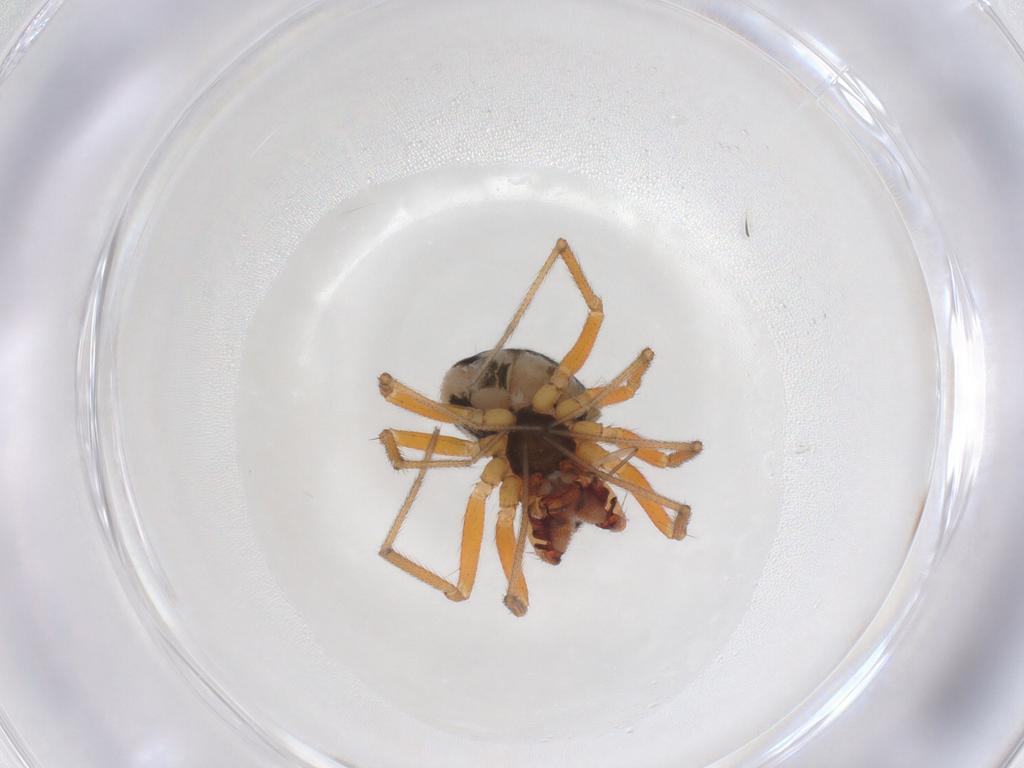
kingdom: Animalia
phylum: Arthropoda
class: Arachnida
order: Araneae
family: Linyphiidae
